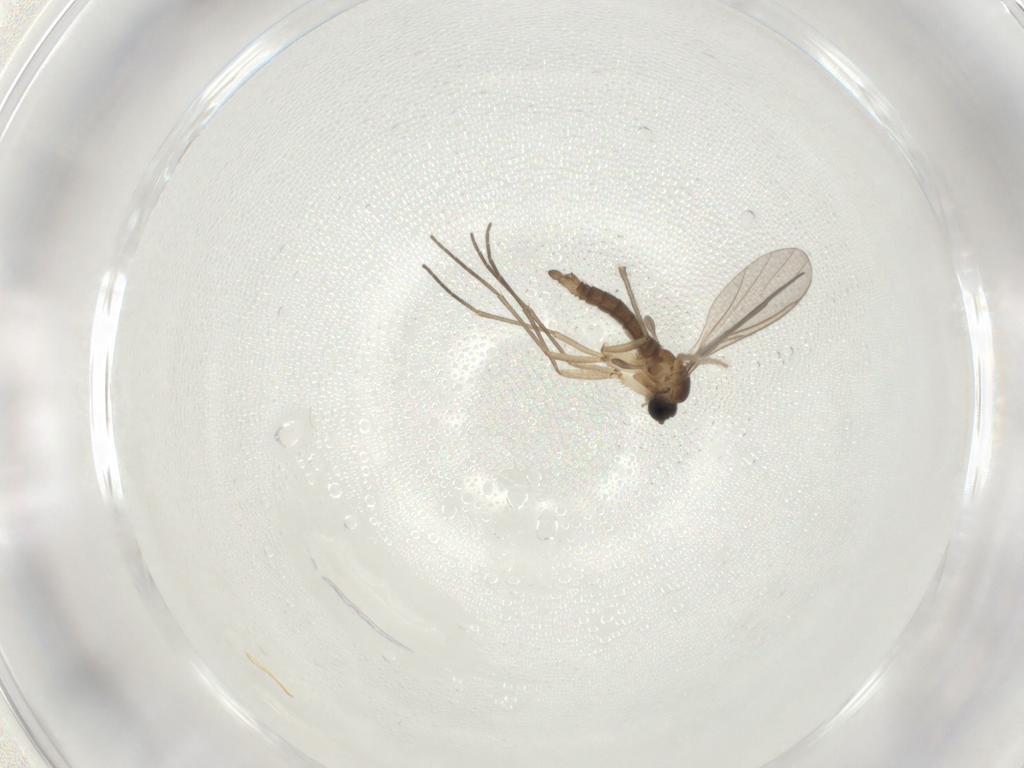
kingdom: Animalia
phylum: Arthropoda
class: Insecta
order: Diptera
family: Sciaridae
